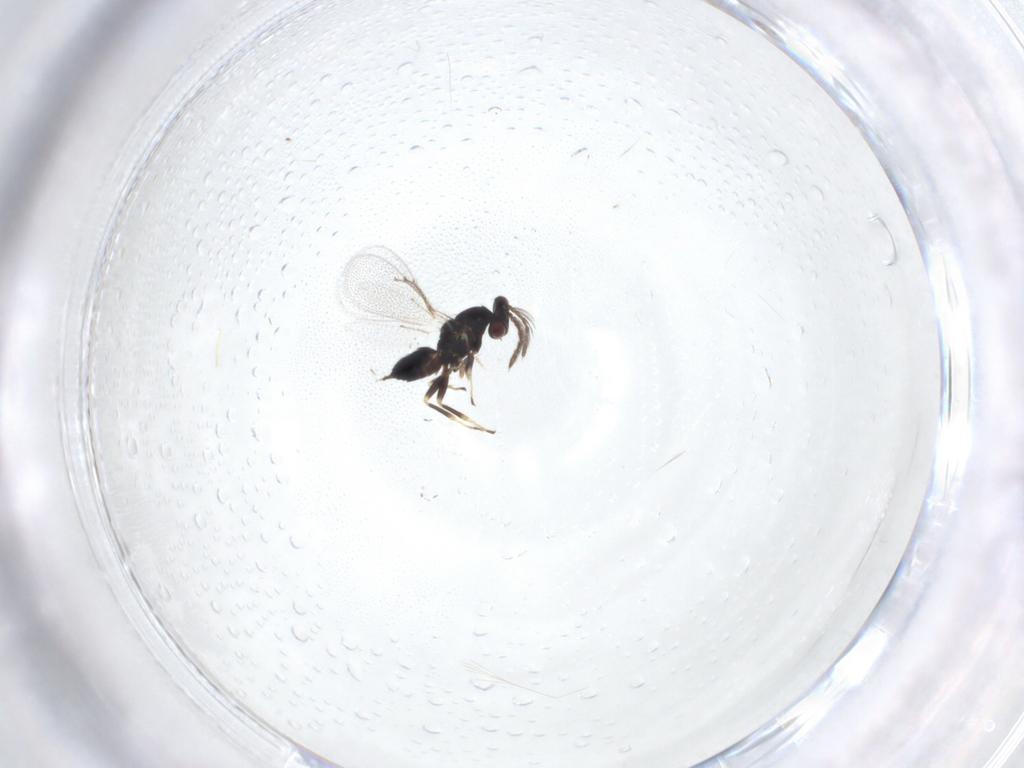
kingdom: Animalia
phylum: Arthropoda
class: Insecta
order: Hymenoptera
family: Eulophidae
